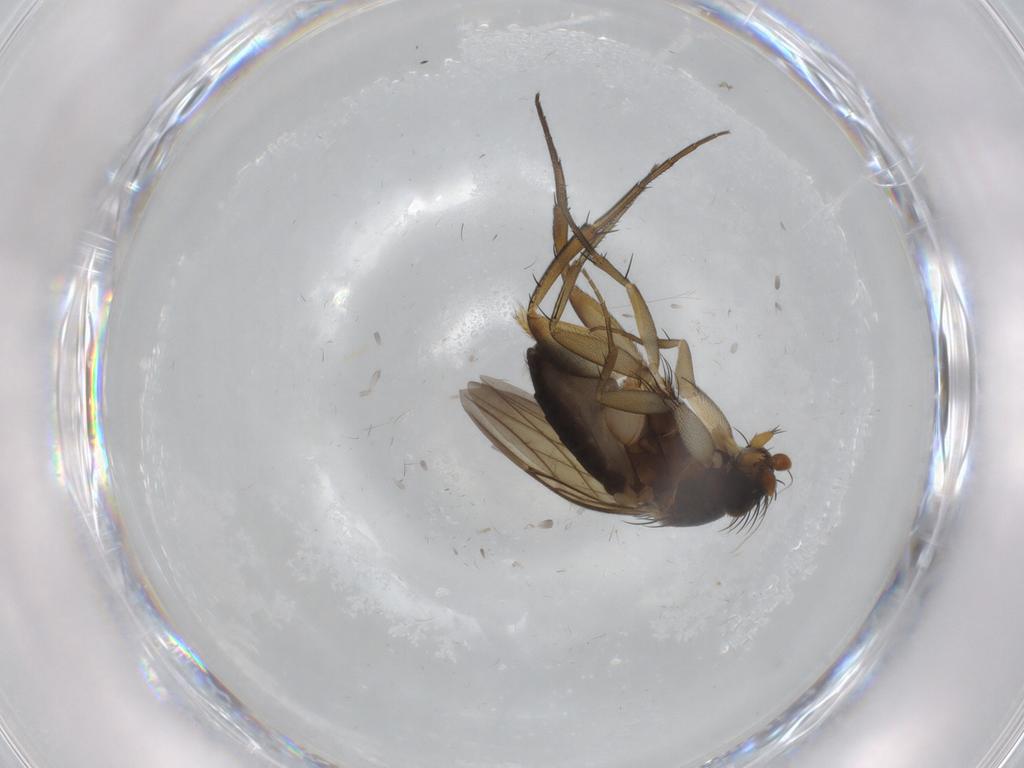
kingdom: Animalia
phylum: Arthropoda
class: Insecta
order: Diptera
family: Phoridae
